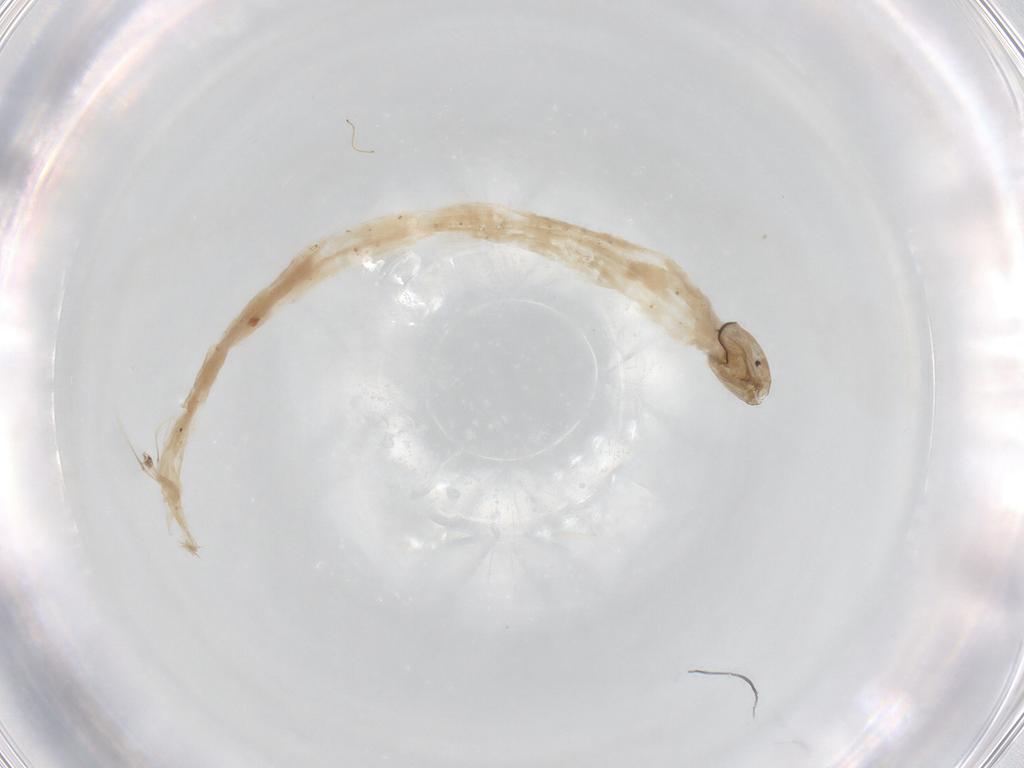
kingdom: Animalia
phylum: Arthropoda
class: Insecta
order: Diptera
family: Chironomidae
